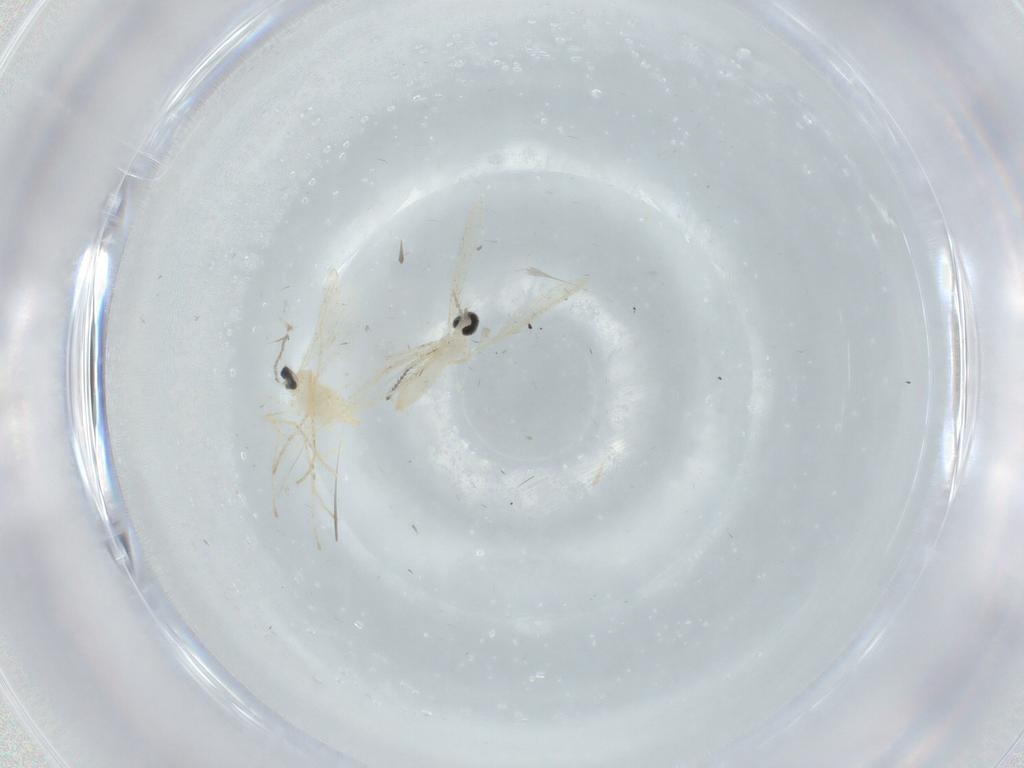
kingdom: Animalia
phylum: Arthropoda
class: Insecta
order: Diptera
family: Cecidomyiidae
